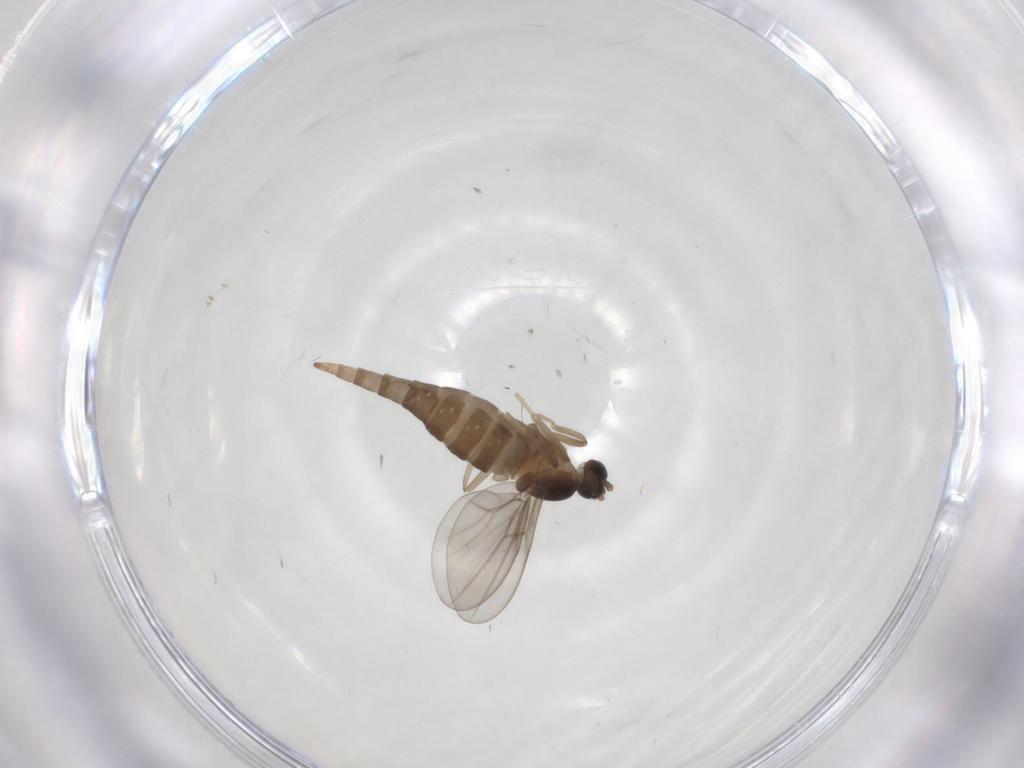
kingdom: Animalia
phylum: Arthropoda
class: Insecta
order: Diptera
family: Cecidomyiidae
